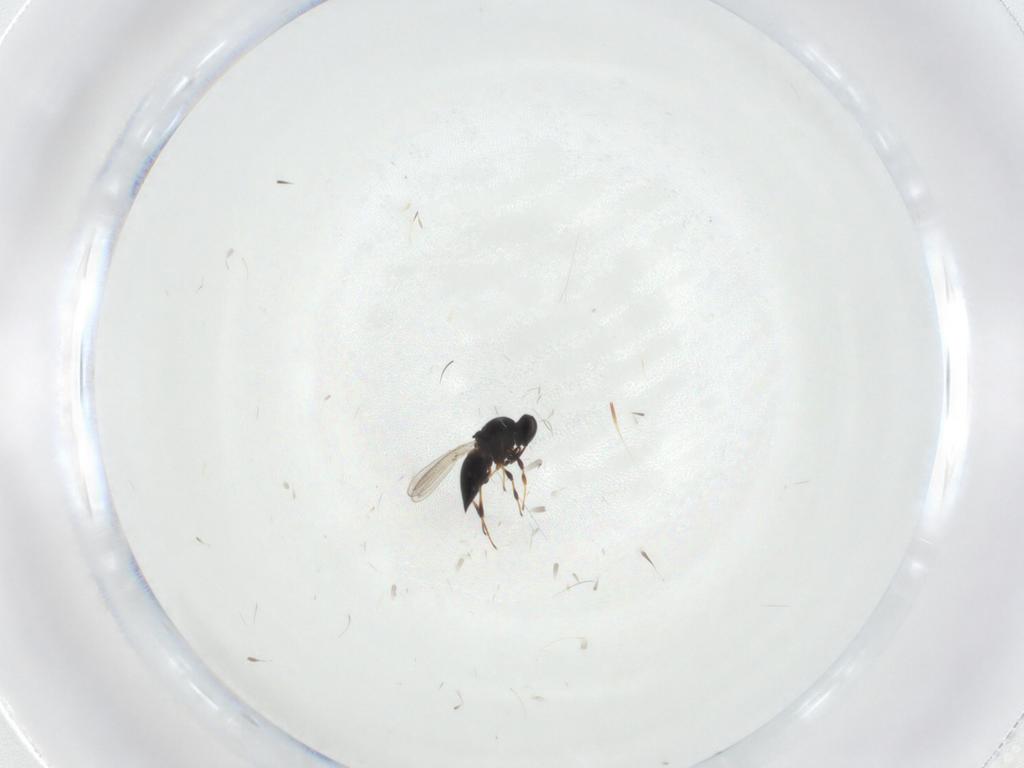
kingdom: Animalia
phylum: Arthropoda
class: Insecta
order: Hymenoptera
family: Platygastridae
